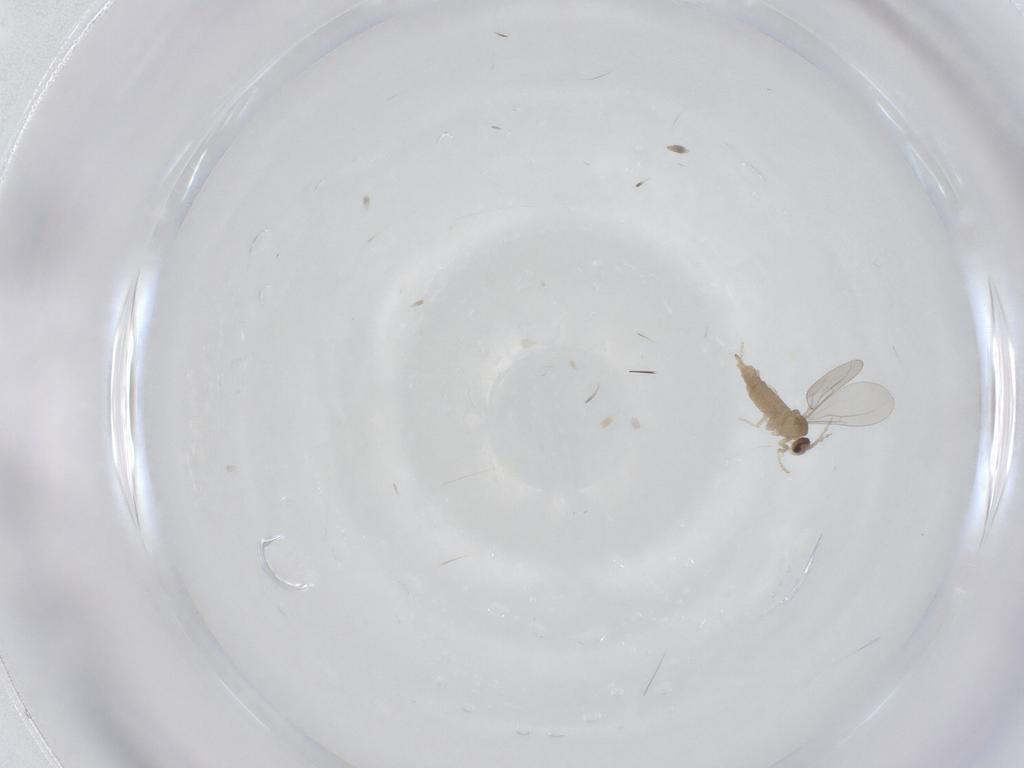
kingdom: Animalia
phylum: Arthropoda
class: Insecta
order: Diptera
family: Cecidomyiidae
